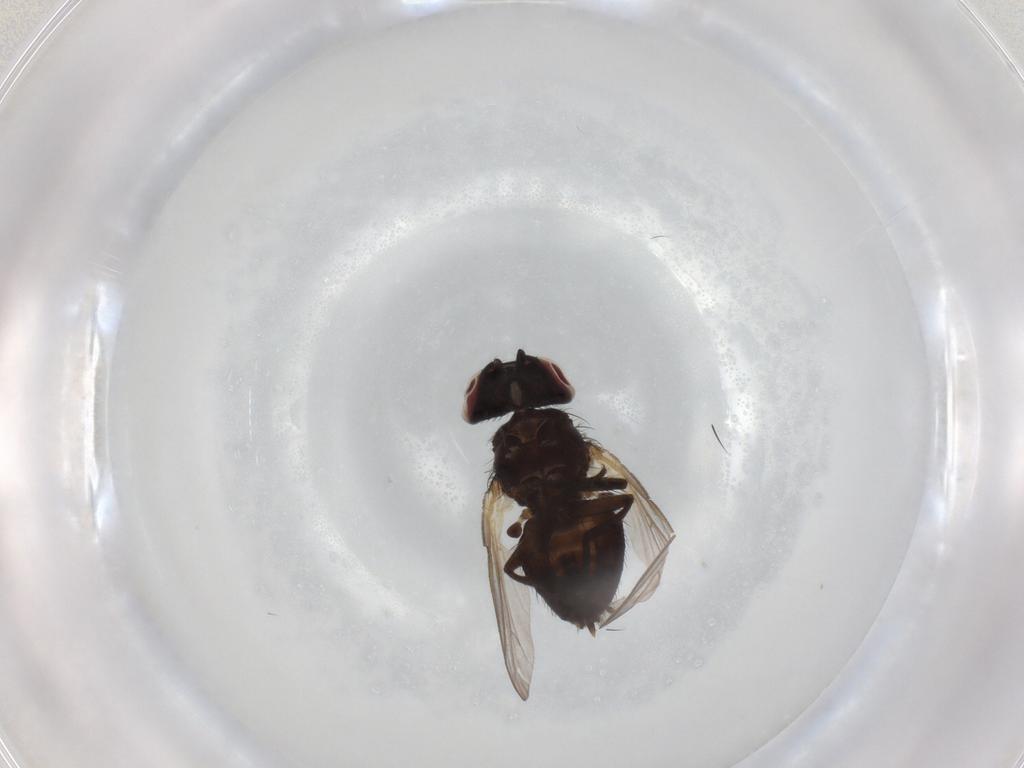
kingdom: Animalia
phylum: Arthropoda
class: Insecta
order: Diptera
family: Lonchaeidae
